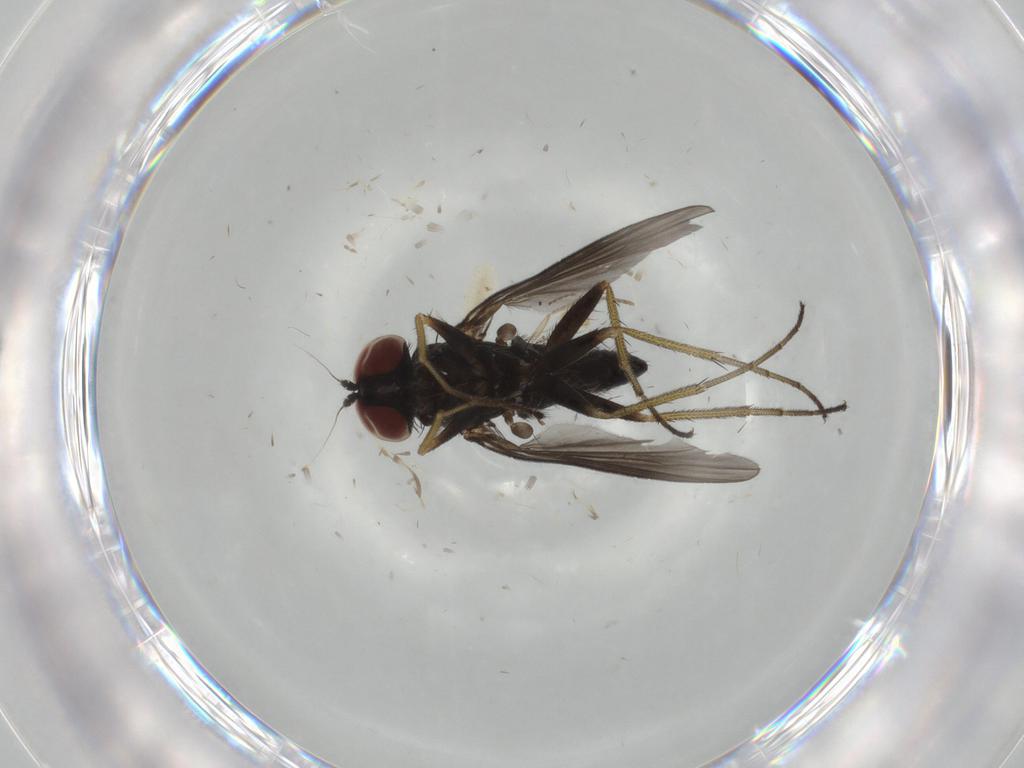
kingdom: Animalia
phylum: Arthropoda
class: Insecta
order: Diptera
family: Dolichopodidae
